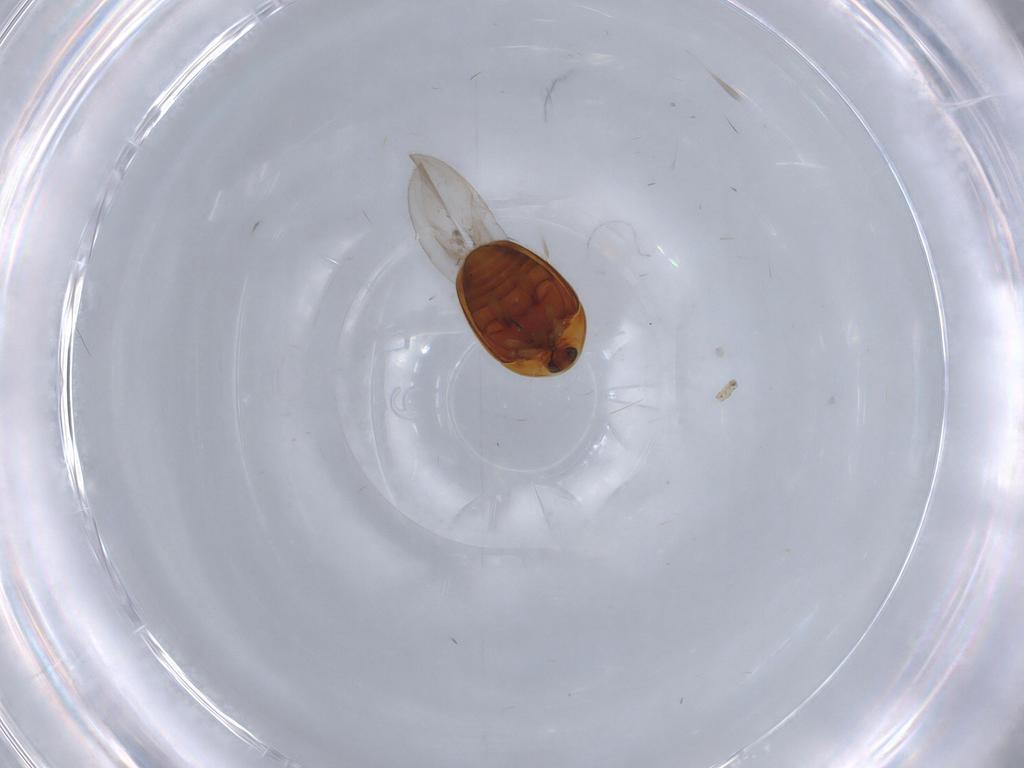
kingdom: Animalia
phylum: Arthropoda
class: Insecta
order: Coleoptera
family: Corylophidae
